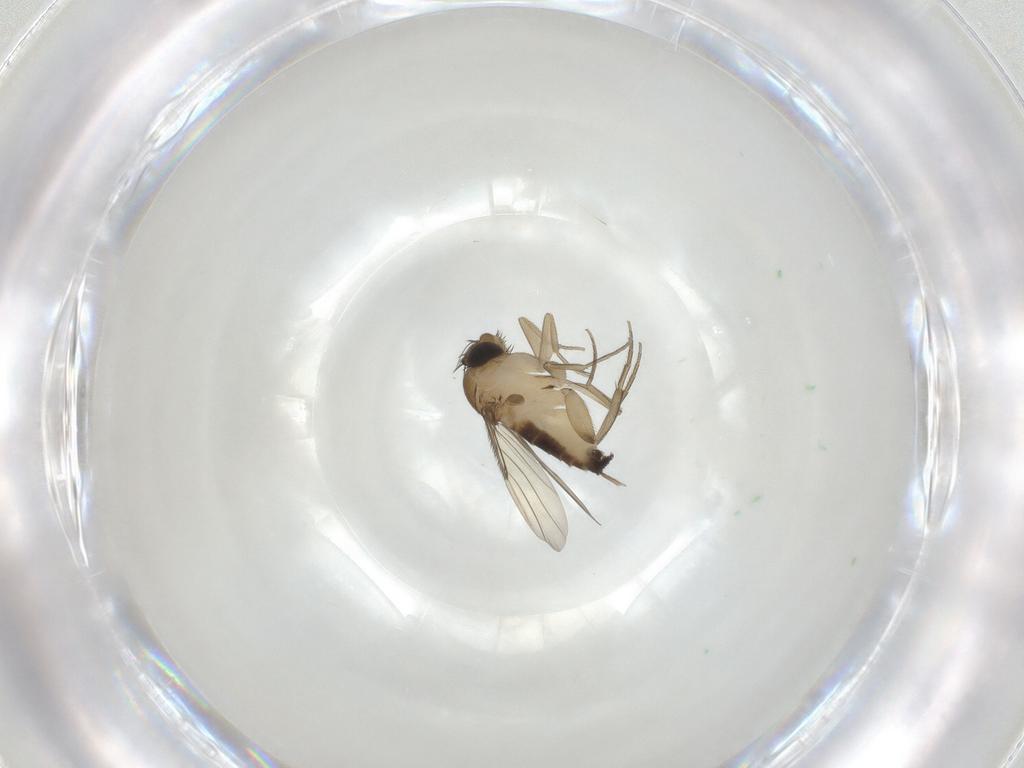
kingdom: Animalia
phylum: Arthropoda
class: Insecta
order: Diptera
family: Phoridae
